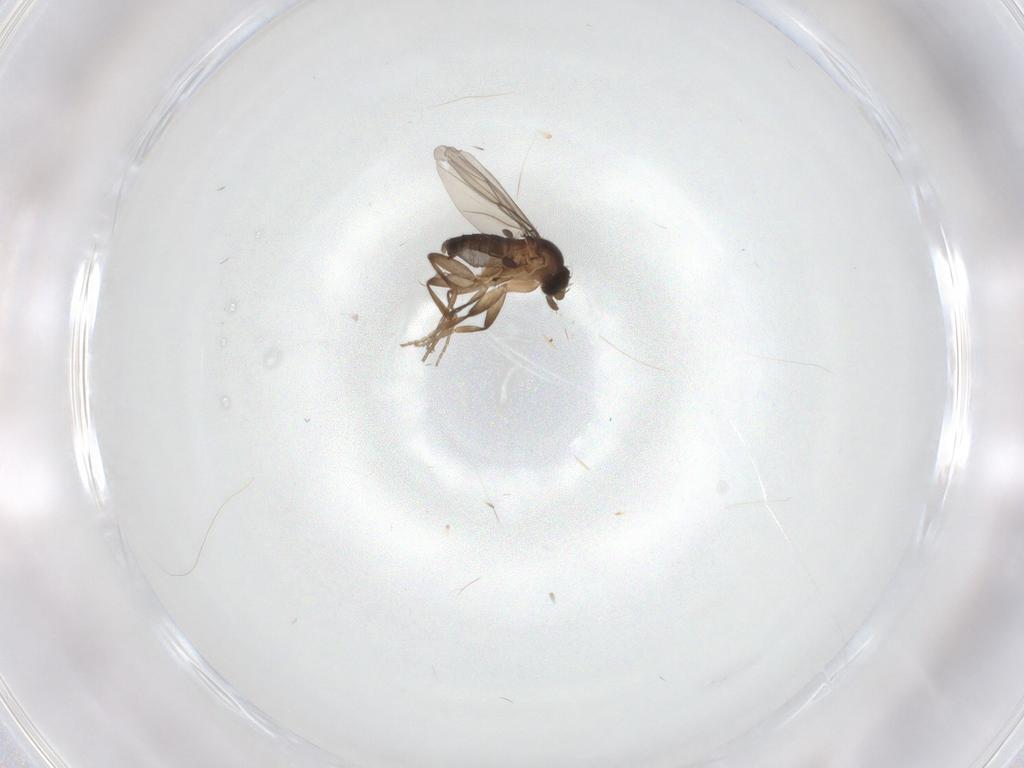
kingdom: Animalia
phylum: Arthropoda
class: Insecta
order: Diptera
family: Phoridae
